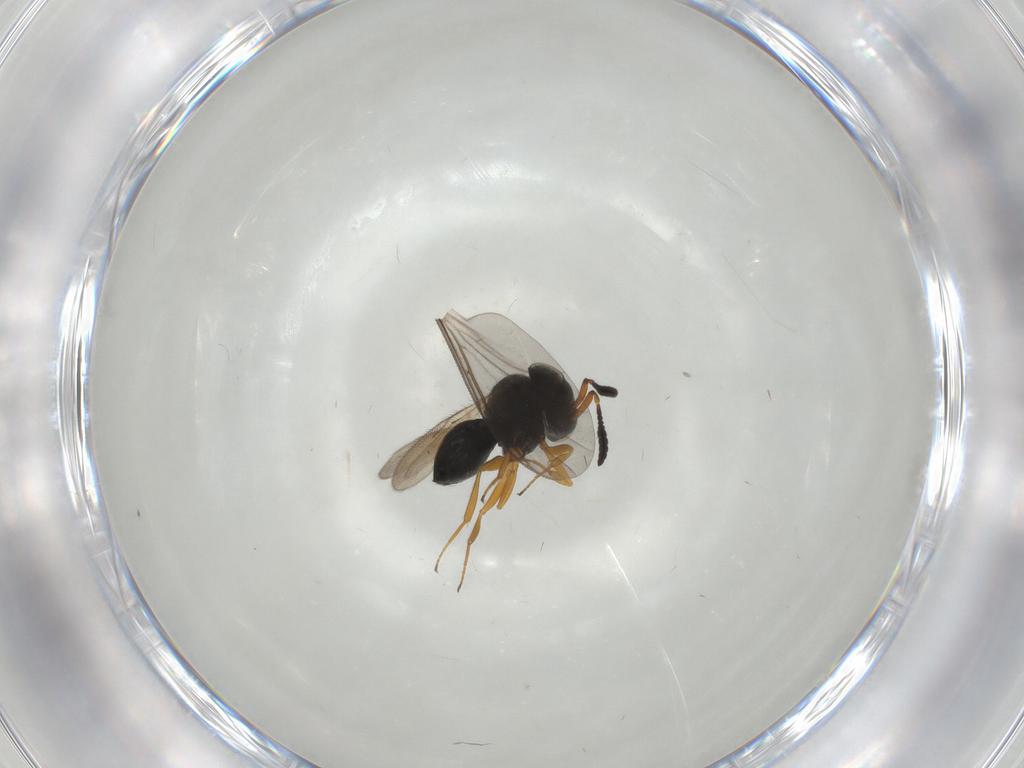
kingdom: Animalia
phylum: Arthropoda
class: Insecta
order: Hymenoptera
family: Scelionidae
